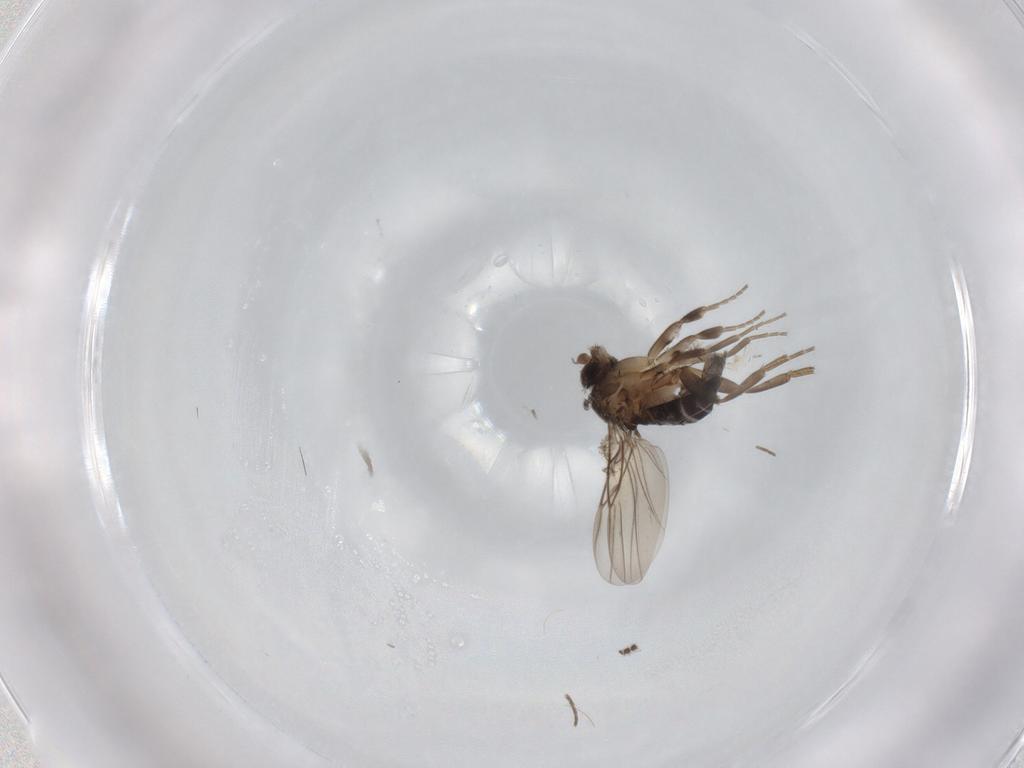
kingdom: Animalia
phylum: Arthropoda
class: Insecta
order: Diptera
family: Phoridae
